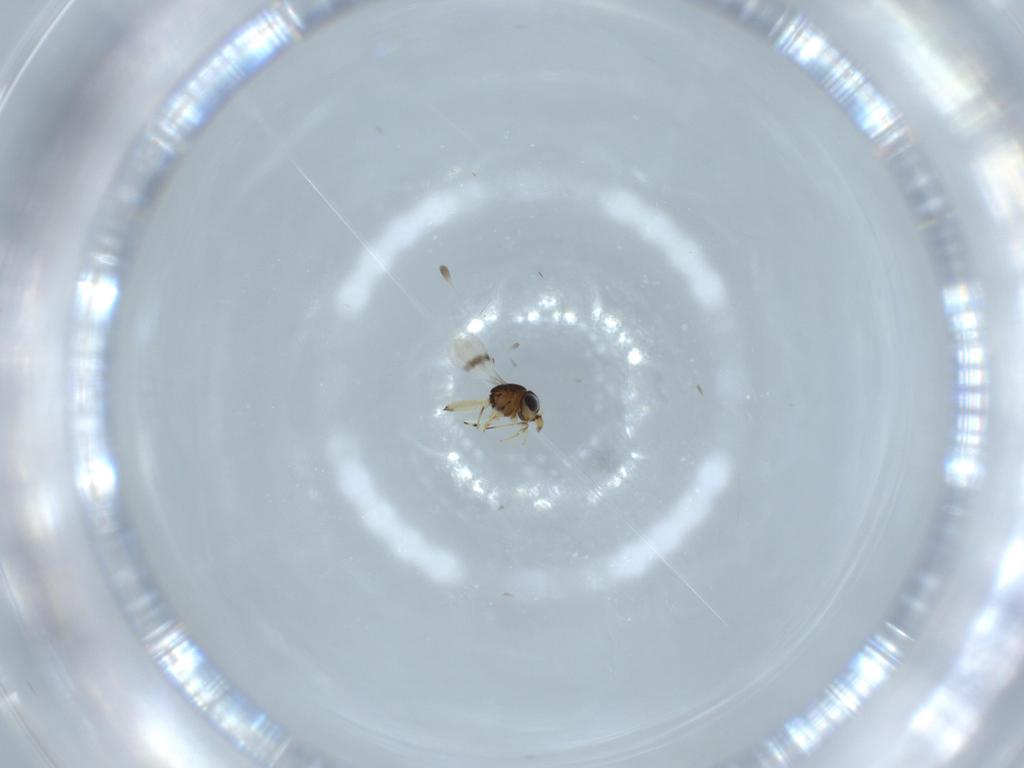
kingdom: Animalia
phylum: Arthropoda
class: Insecta
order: Hymenoptera
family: Scelionidae
